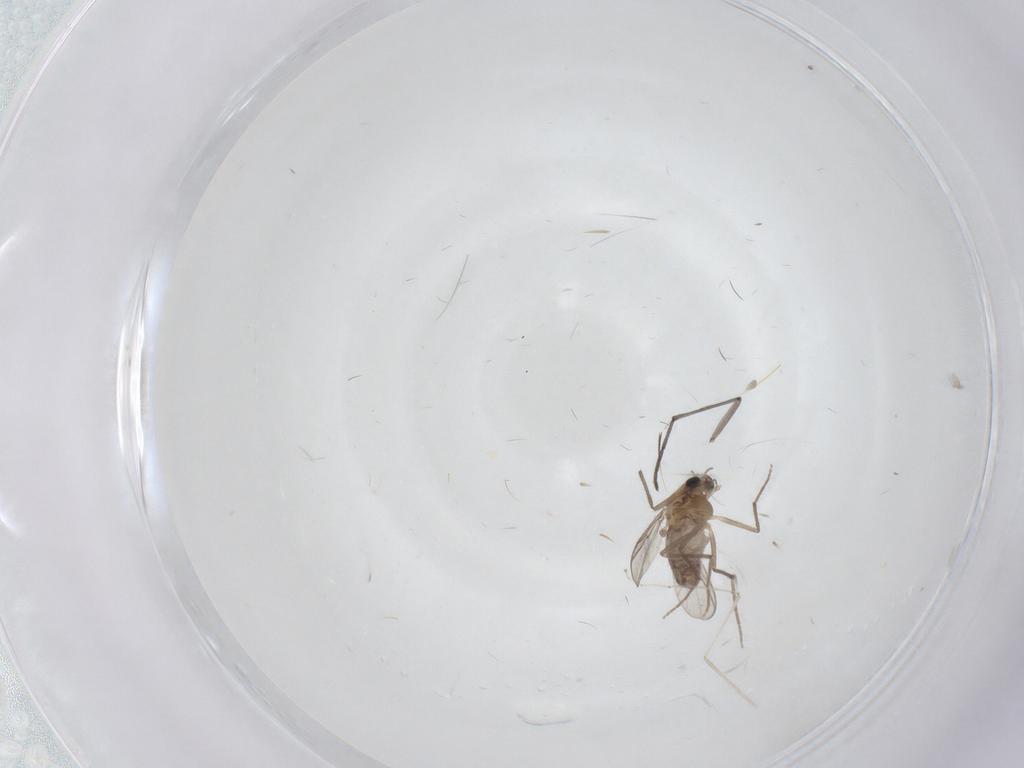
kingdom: Animalia
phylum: Arthropoda
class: Insecta
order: Diptera
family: Chironomidae
